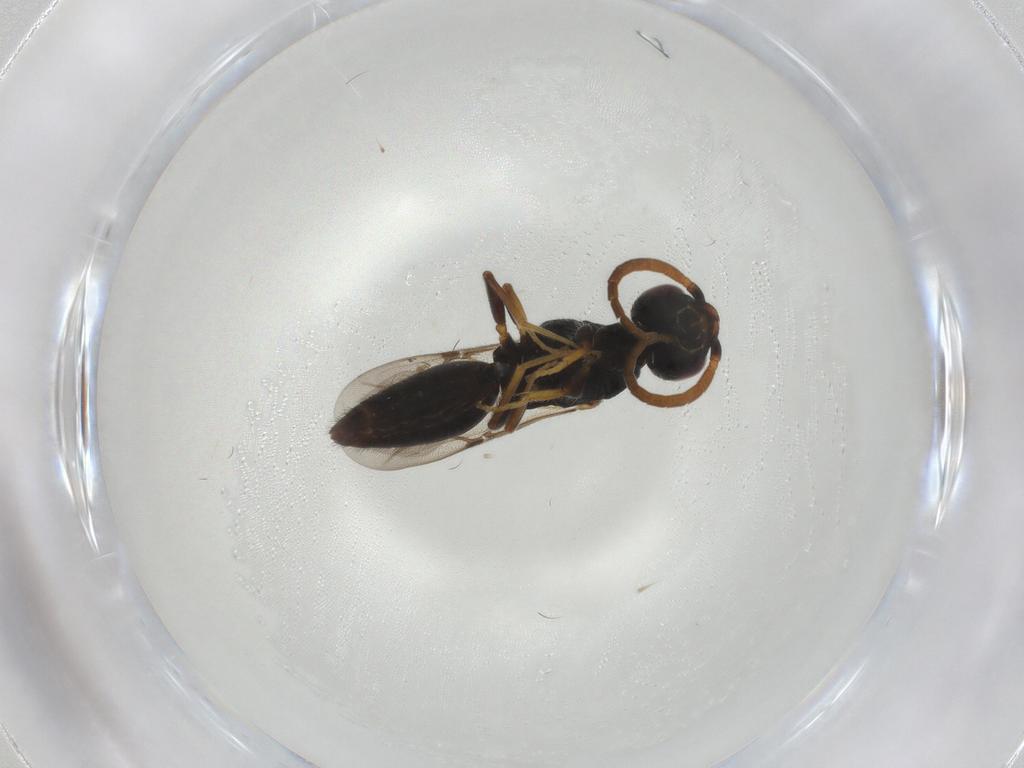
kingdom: Animalia
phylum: Arthropoda
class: Insecta
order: Hymenoptera
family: Bethylidae
